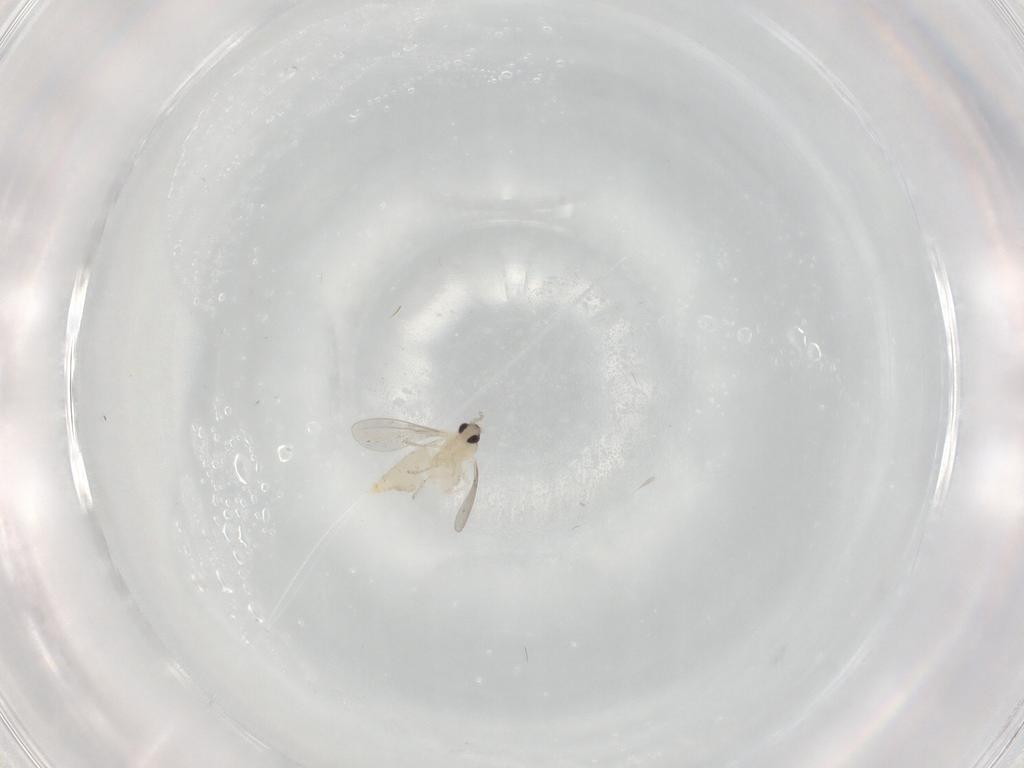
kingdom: Animalia
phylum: Arthropoda
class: Insecta
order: Diptera
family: Cecidomyiidae
